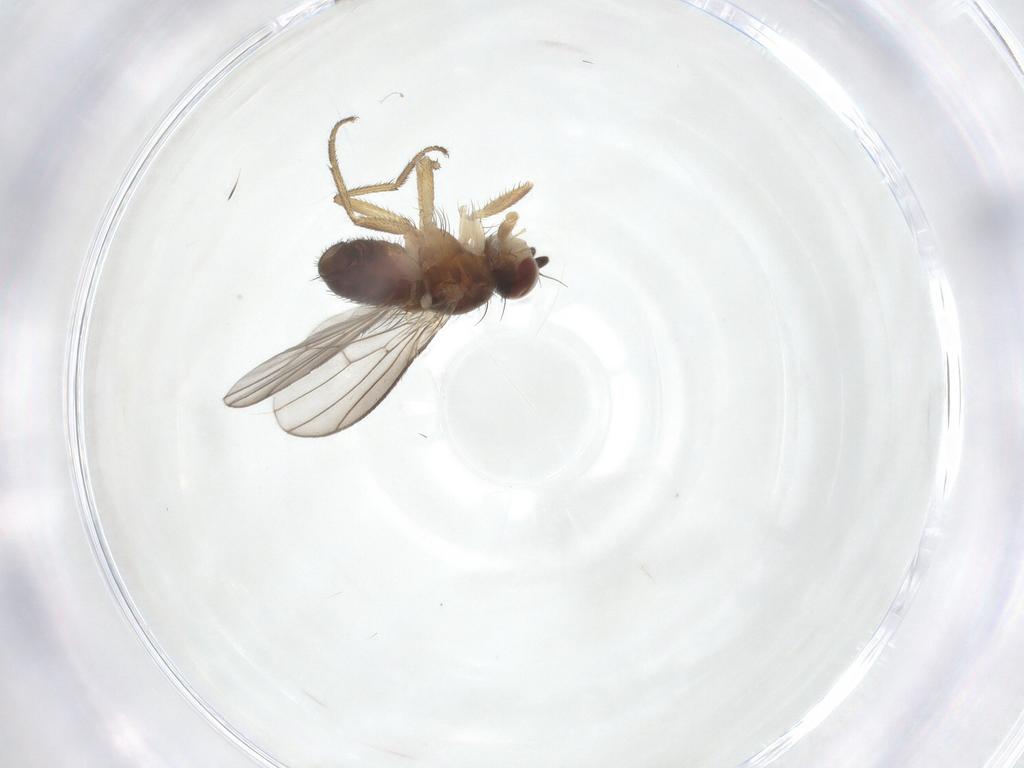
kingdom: Animalia
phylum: Arthropoda
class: Insecta
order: Diptera
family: Heleomyzidae
